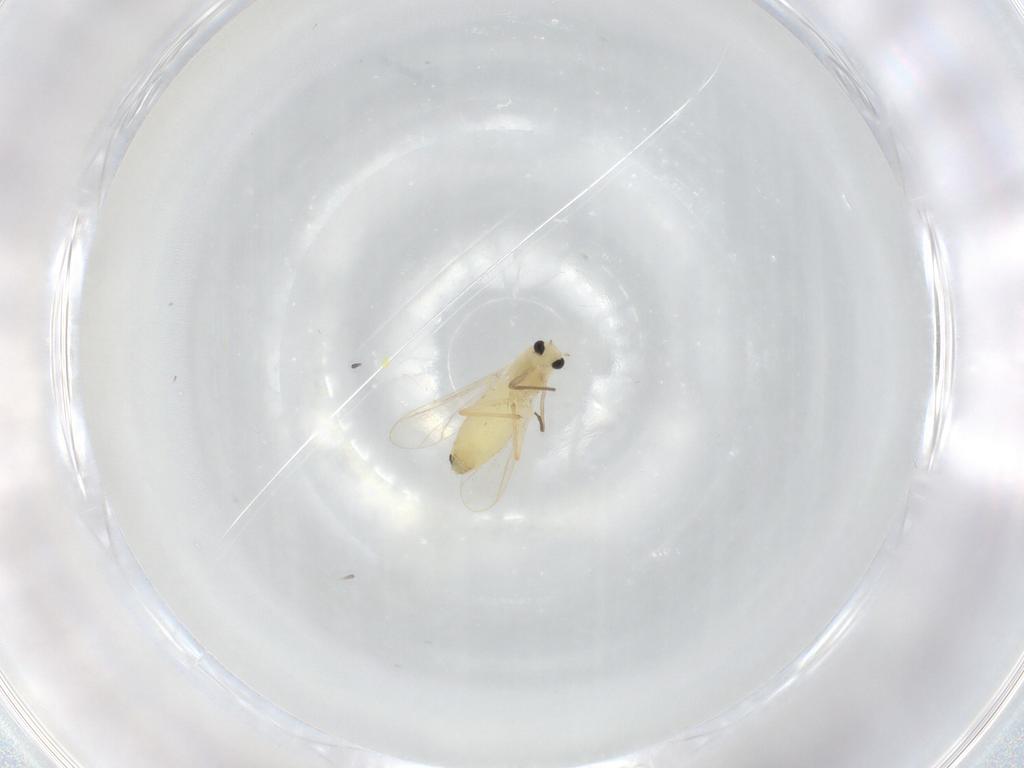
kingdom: Animalia
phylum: Arthropoda
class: Insecta
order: Diptera
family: Chironomidae
